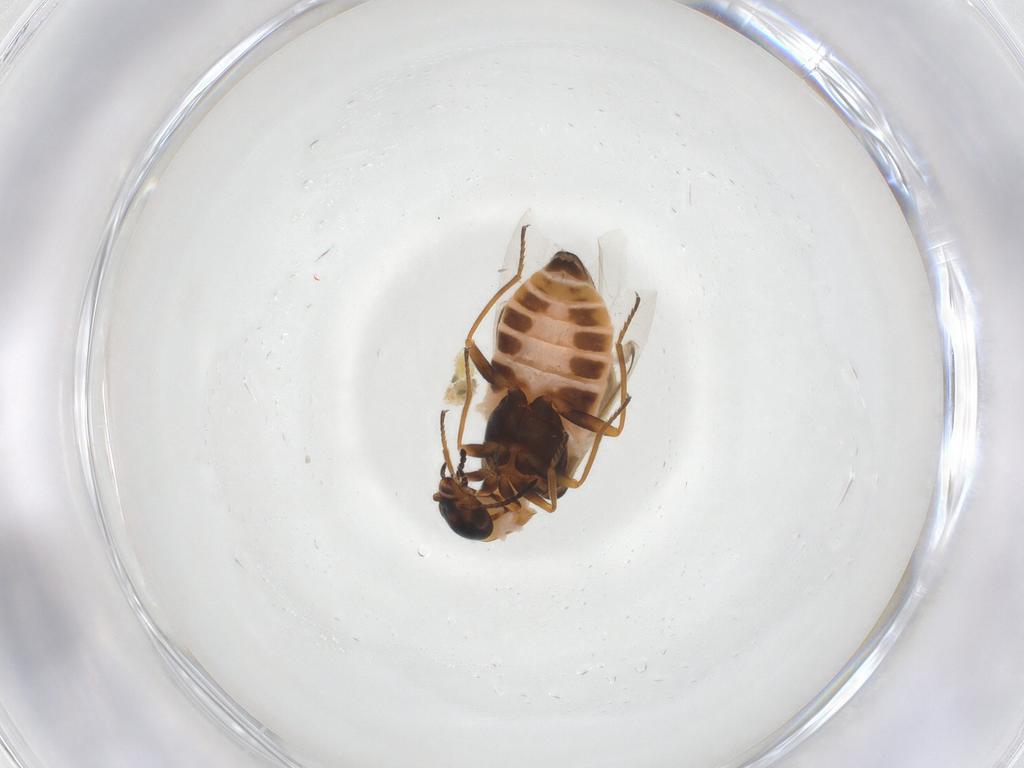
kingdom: Animalia
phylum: Arthropoda
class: Insecta
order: Coleoptera
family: Melyridae
